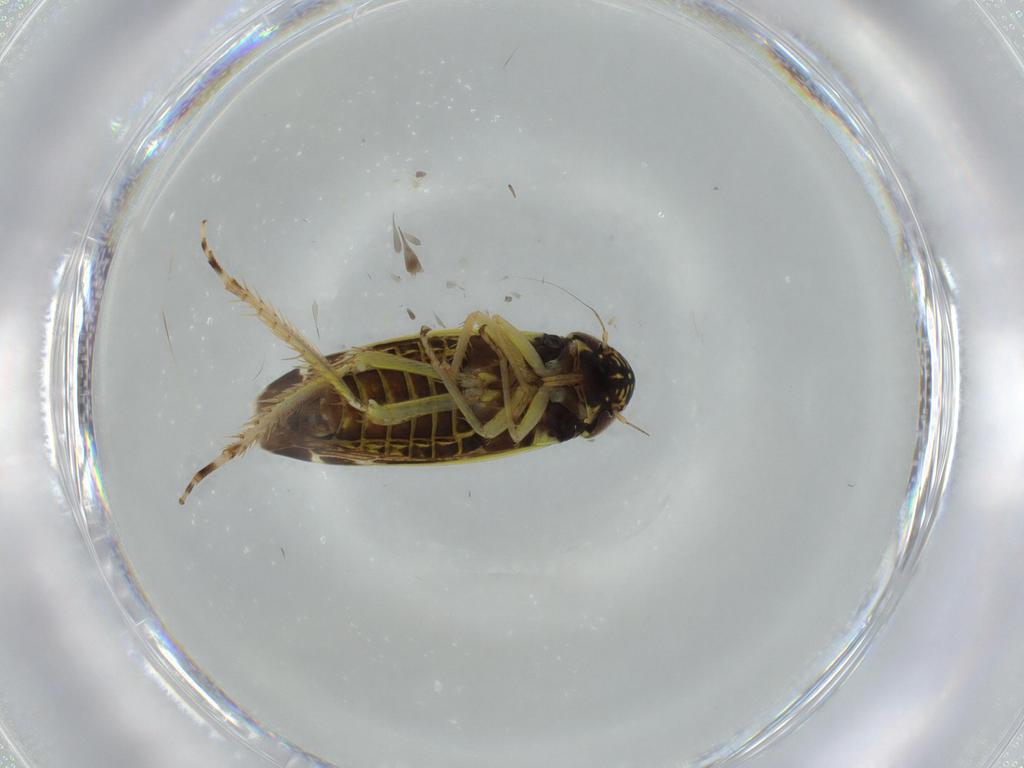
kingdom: Animalia
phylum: Arthropoda
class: Insecta
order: Hemiptera
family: Cicadellidae
